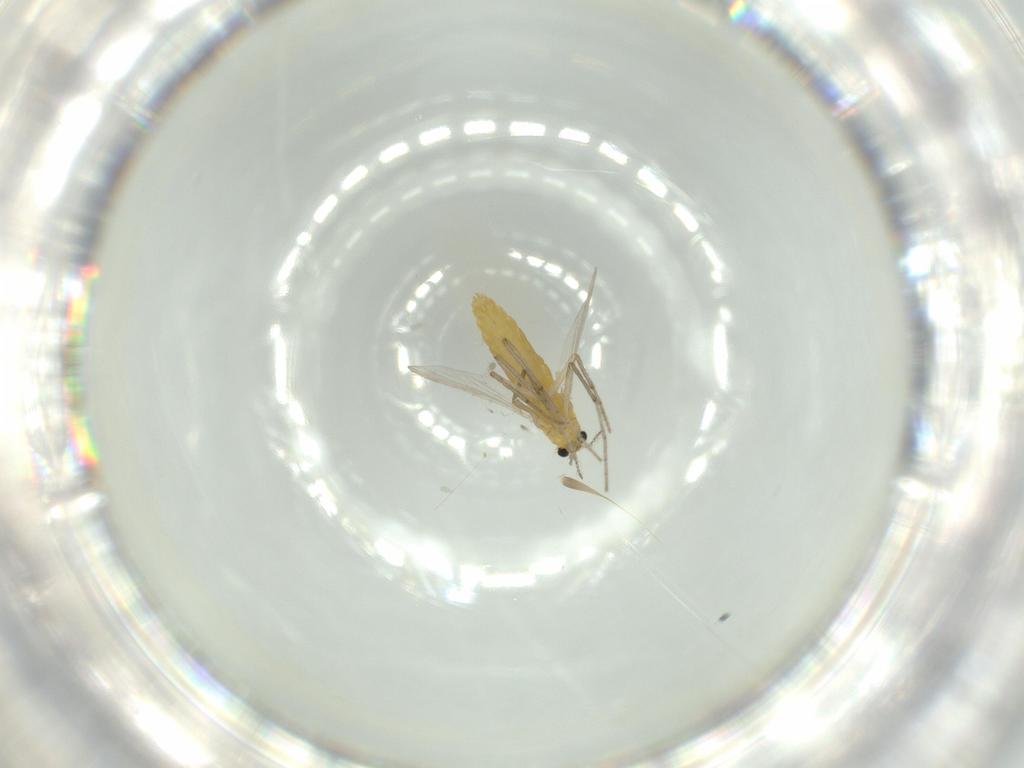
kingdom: Animalia
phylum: Arthropoda
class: Insecta
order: Diptera
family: Chironomidae
